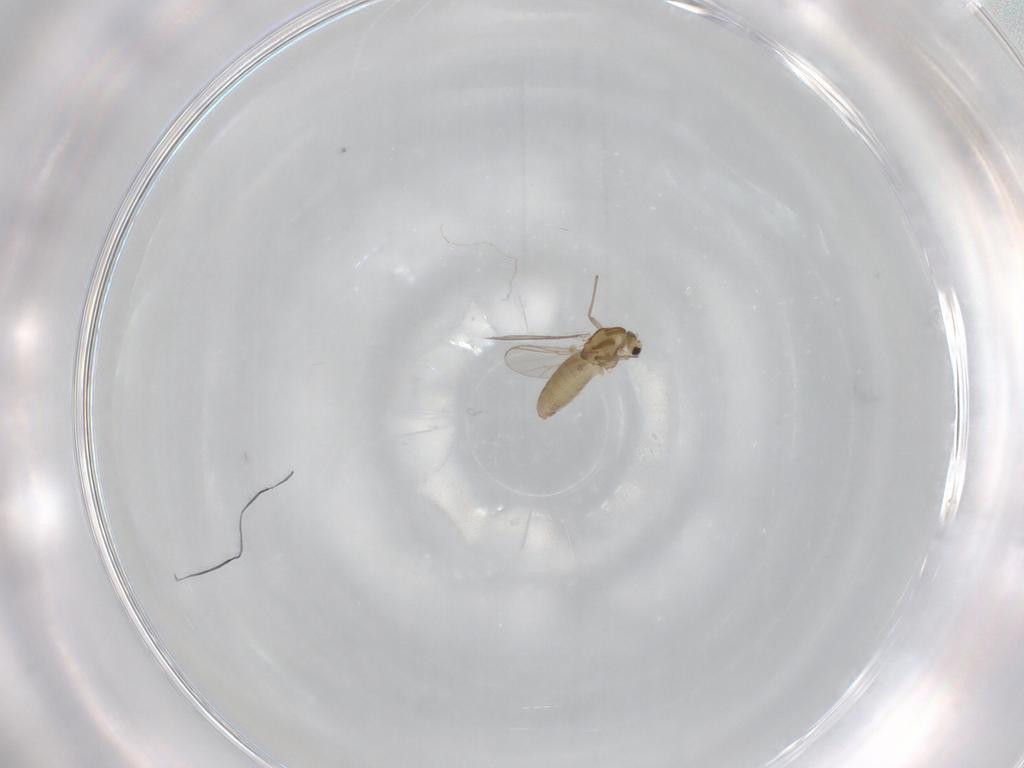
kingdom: Animalia
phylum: Arthropoda
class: Insecta
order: Diptera
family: Chironomidae
